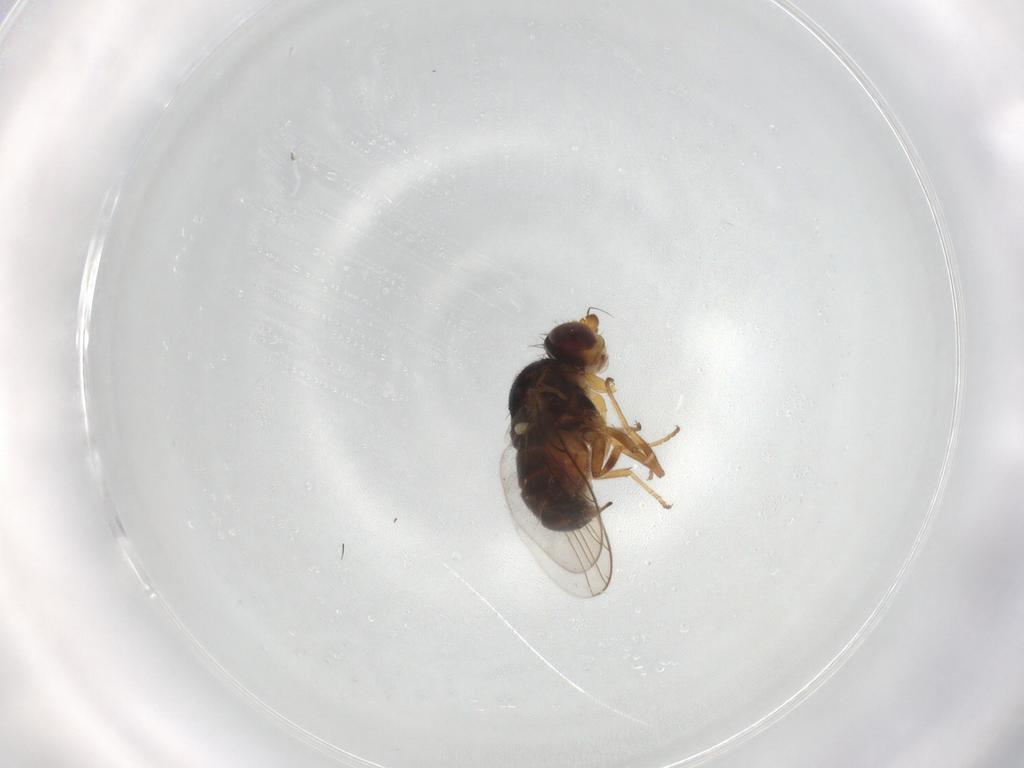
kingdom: Animalia
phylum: Arthropoda
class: Insecta
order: Diptera
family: Chloropidae
